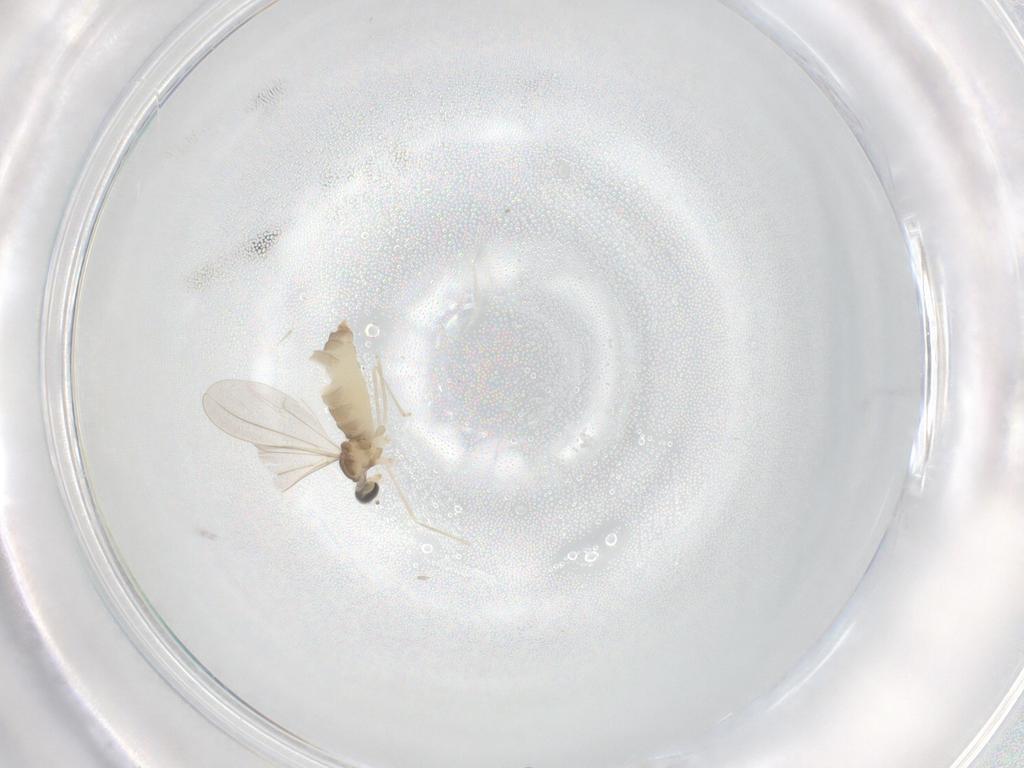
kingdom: Animalia
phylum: Arthropoda
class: Insecta
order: Diptera
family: Cecidomyiidae
